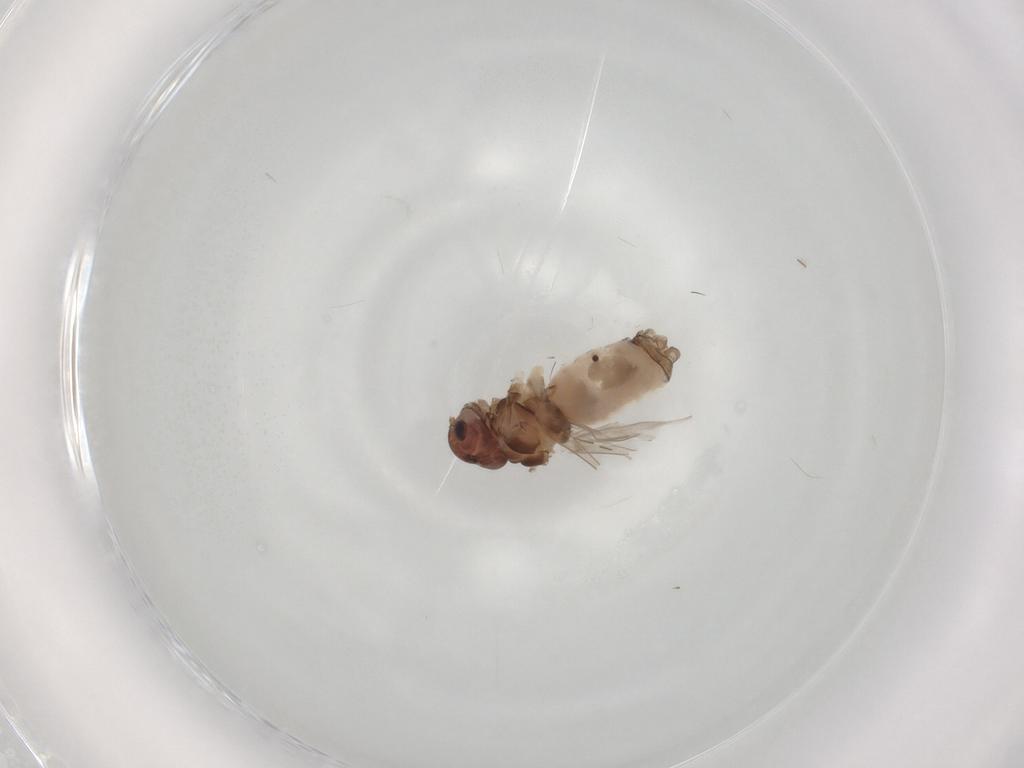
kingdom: Animalia
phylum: Arthropoda
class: Insecta
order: Psocodea
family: Peripsocidae
